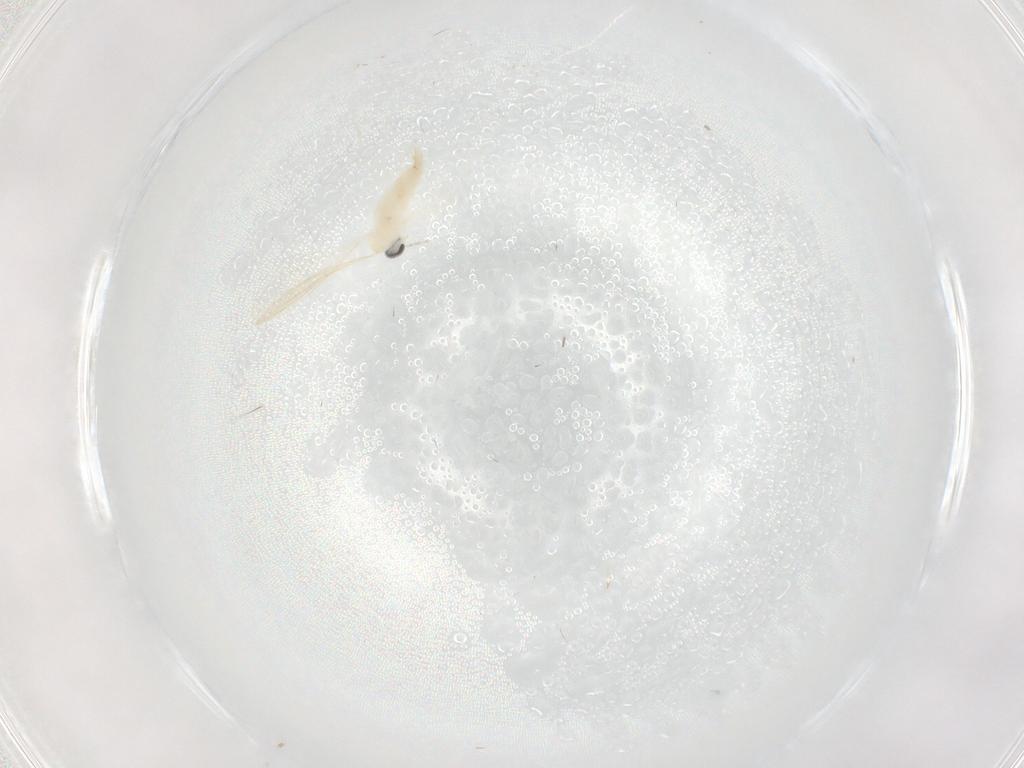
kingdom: Animalia
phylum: Arthropoda
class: Insecta
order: Diptera
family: Cecidomyiidae
